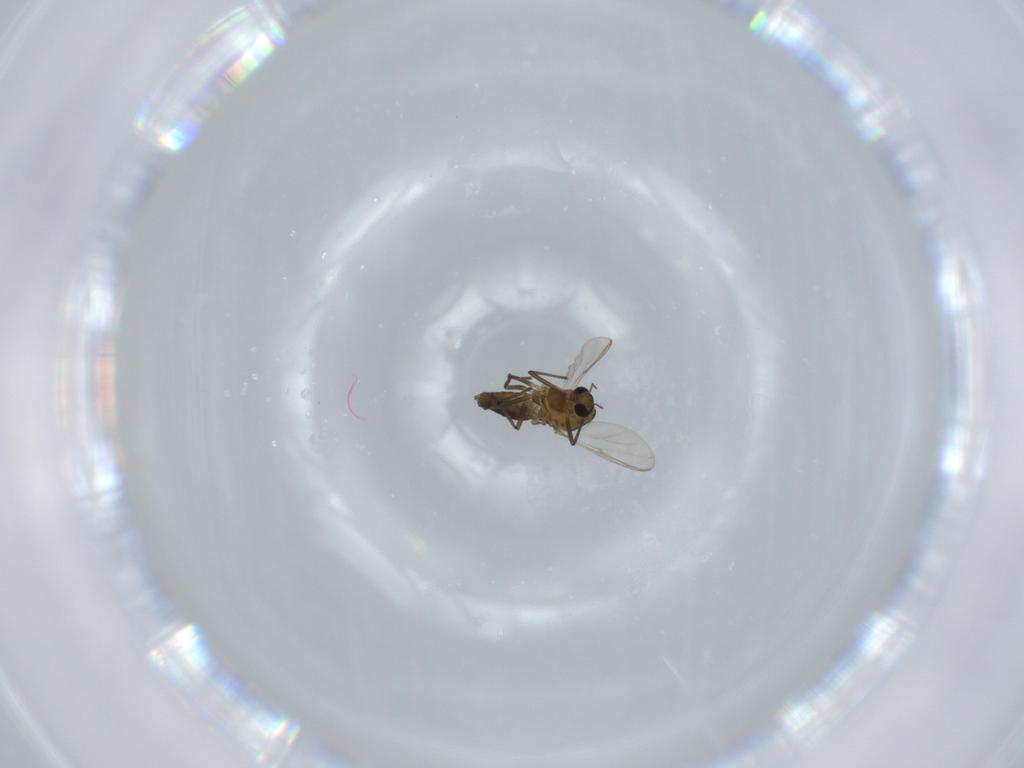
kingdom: Animalia
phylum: Arthropoda
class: Insecta
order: Diptera
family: Chironomidae
